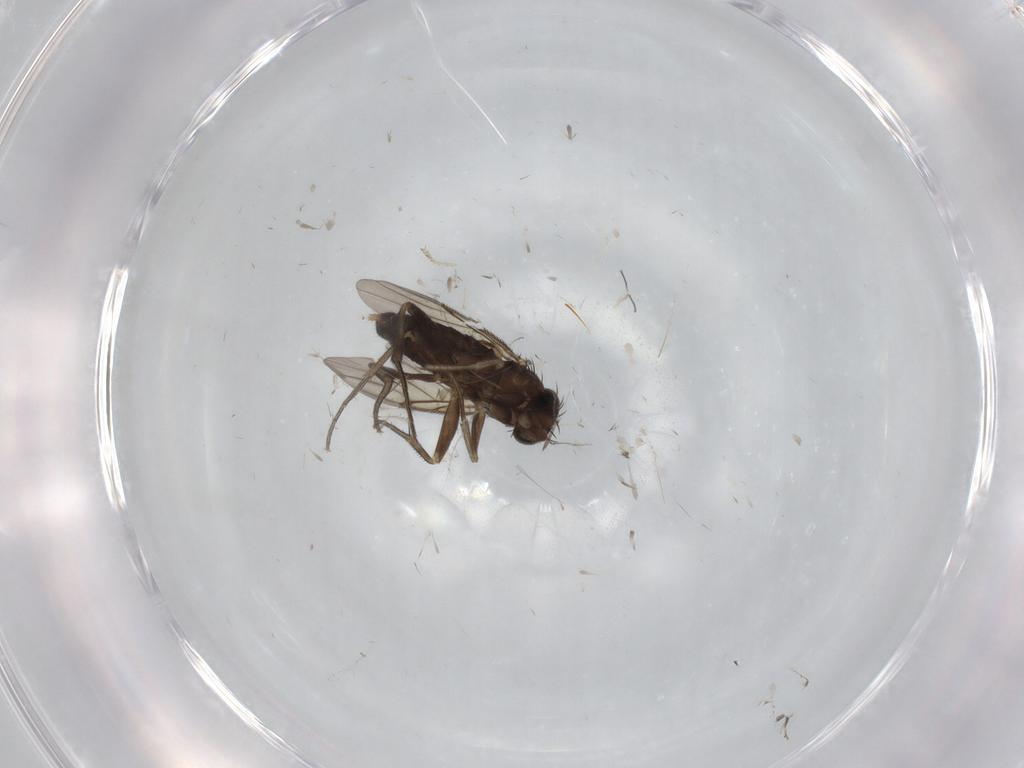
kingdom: Animalia
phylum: Arthropoda
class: Insecta
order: Diptera
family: Phoridae
